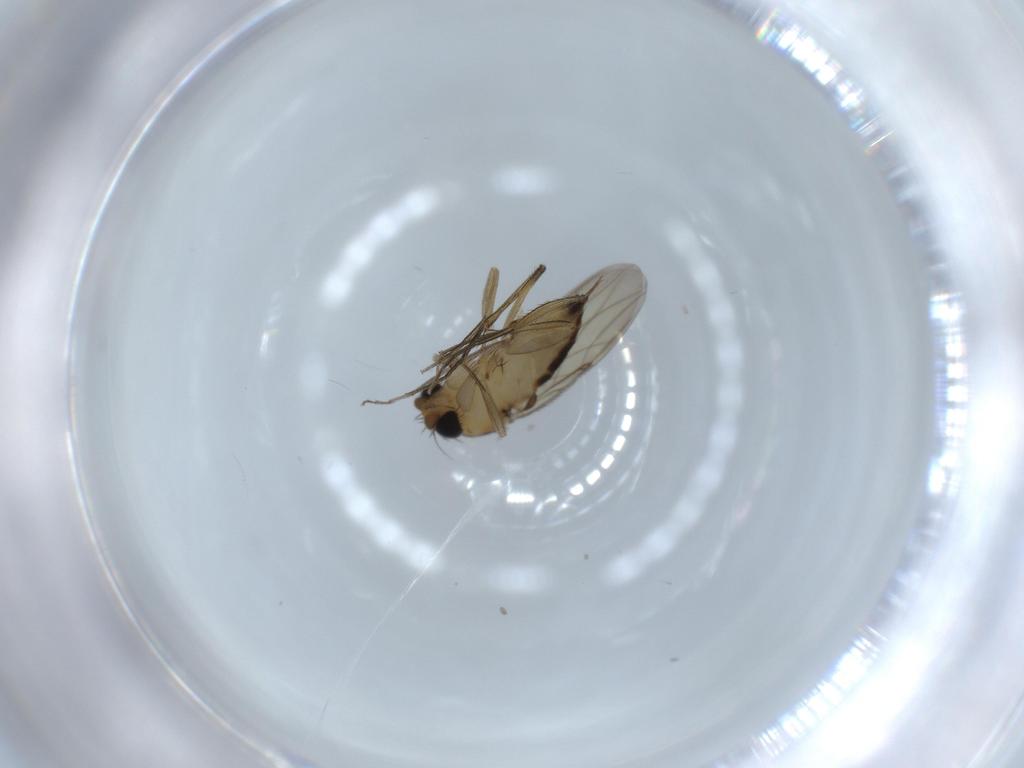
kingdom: Animalia
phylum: Arthropoda
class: Insecta
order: Diptera
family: Phoridae
